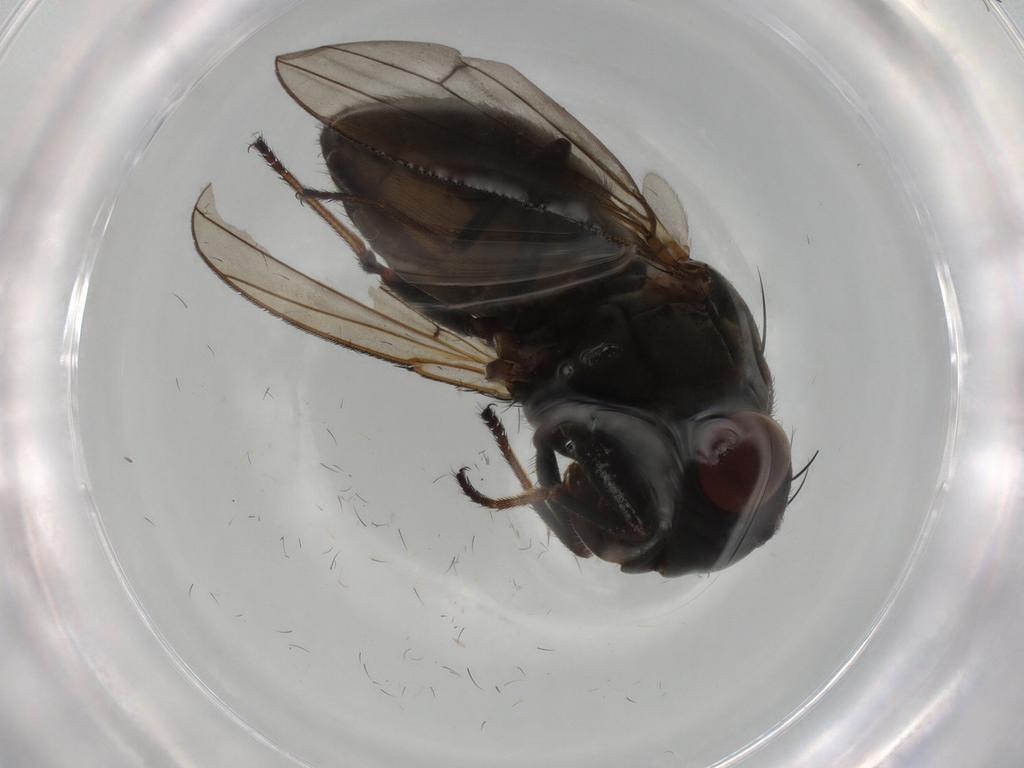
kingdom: Animalia
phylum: Arthropoda
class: Insecta
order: Diptera
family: Ephydridae
